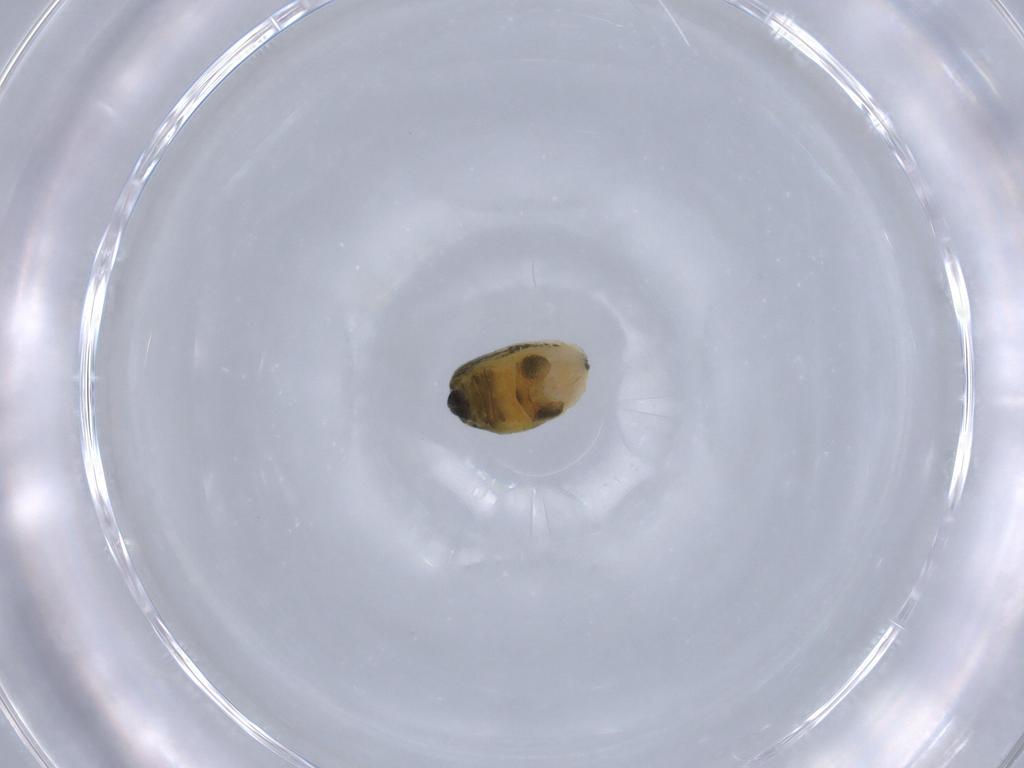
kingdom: Animalia
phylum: Arthropoda
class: Arachnida
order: Araneae
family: Araneidae
